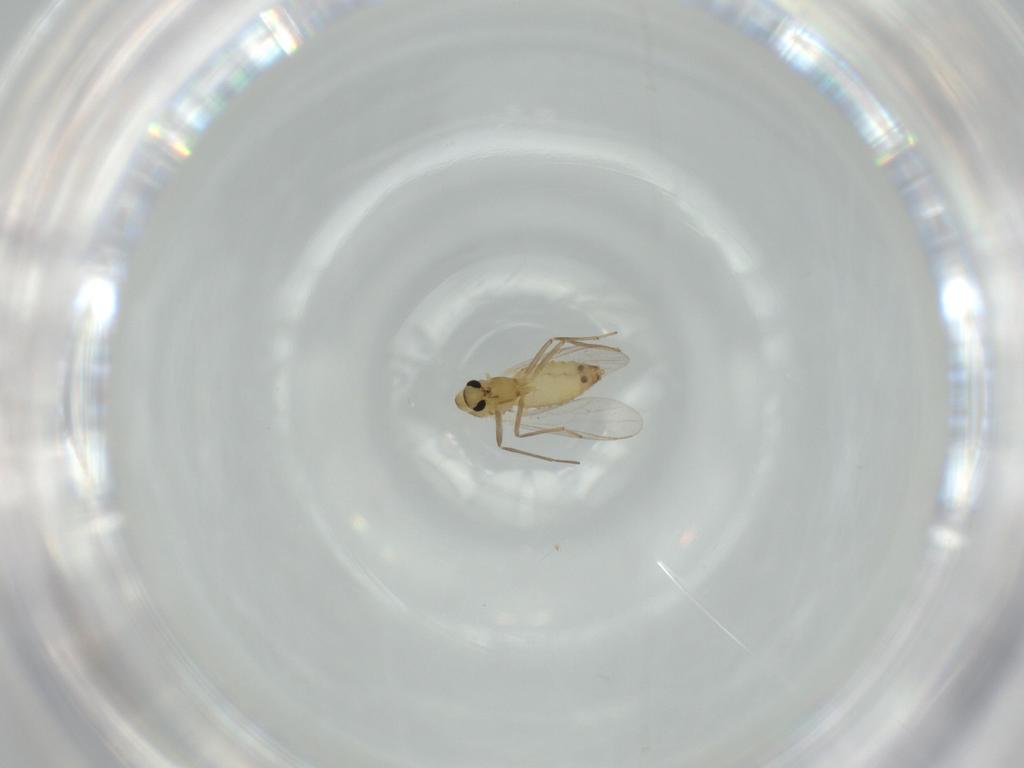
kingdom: Animalia
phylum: Arthropoda
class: Insecta
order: Diptera
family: Chironomidae
